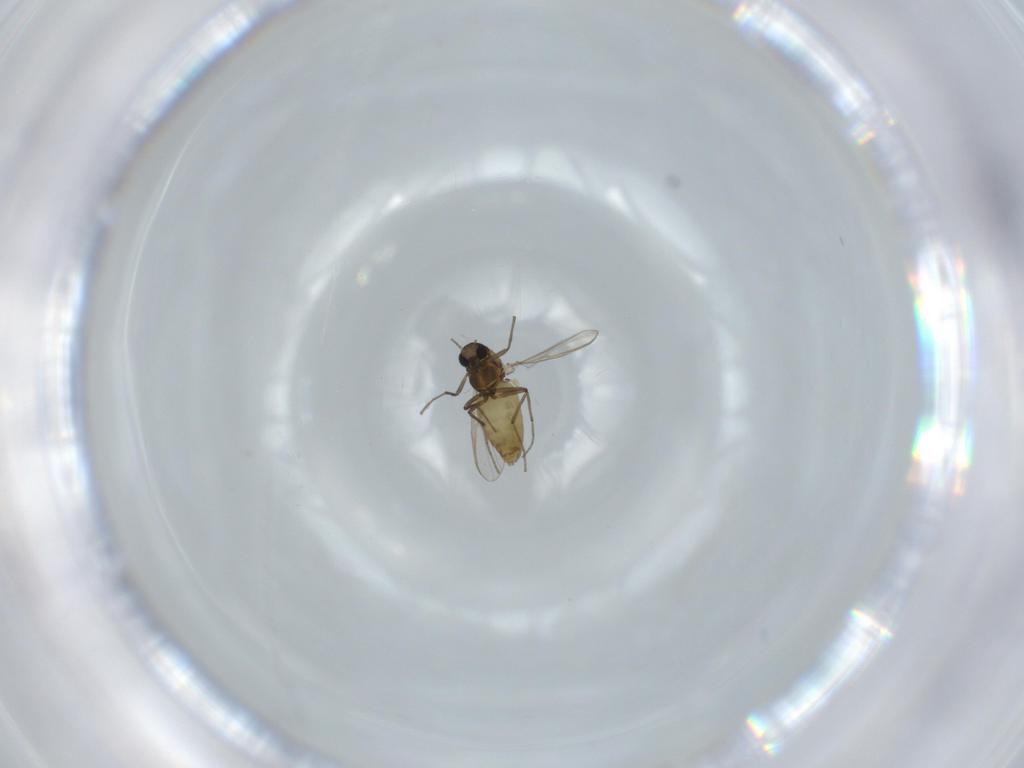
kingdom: Animalia
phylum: Arthropoda
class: Insecta
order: Diptera
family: Chironomidae
